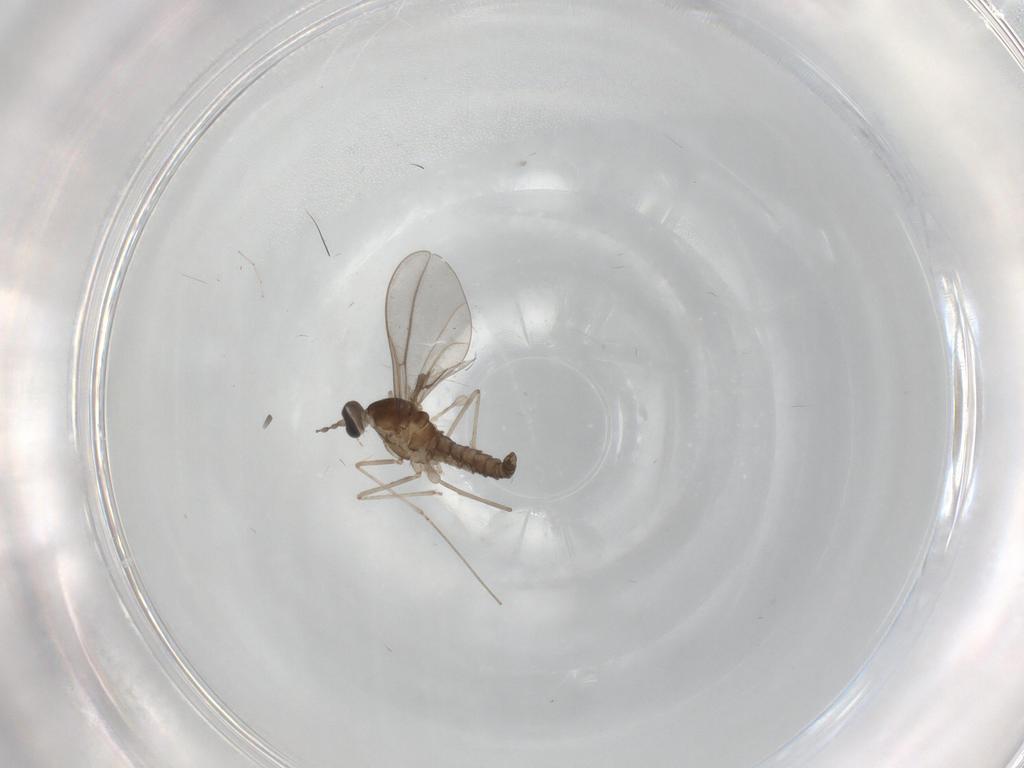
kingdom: Animalia
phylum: Arthropoda
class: Insecta
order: Diptera
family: Cecidomyiidae
